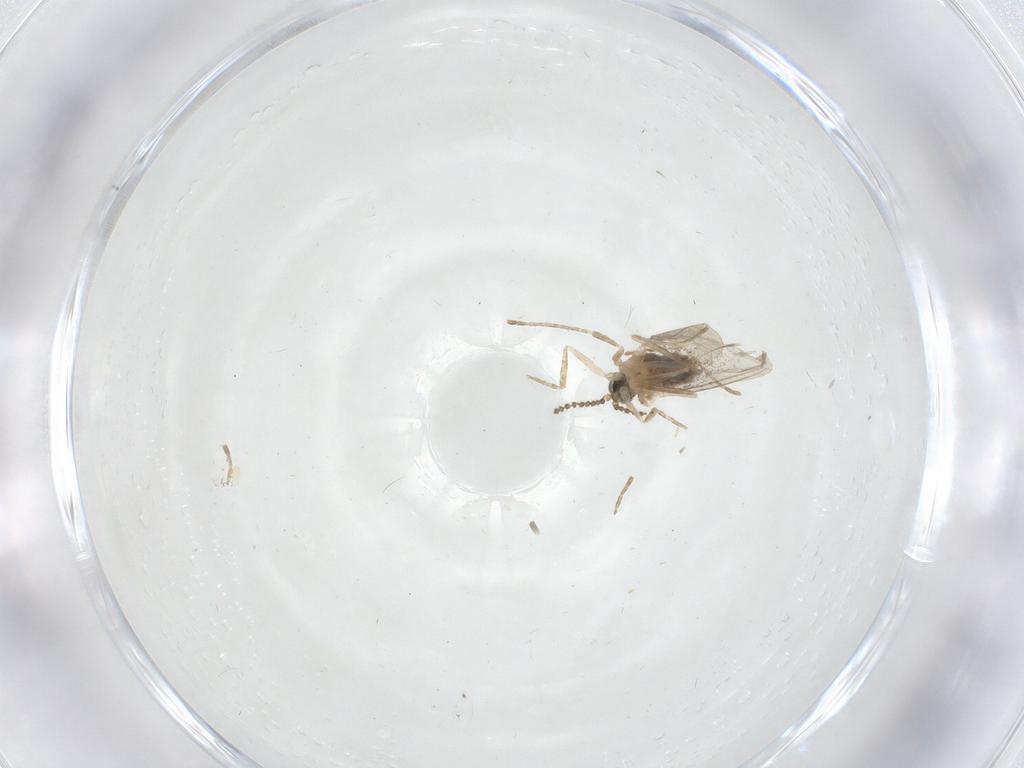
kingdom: Animalia
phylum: Arthropoda
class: Insecta
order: Diptera
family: Cecidomyiidae
